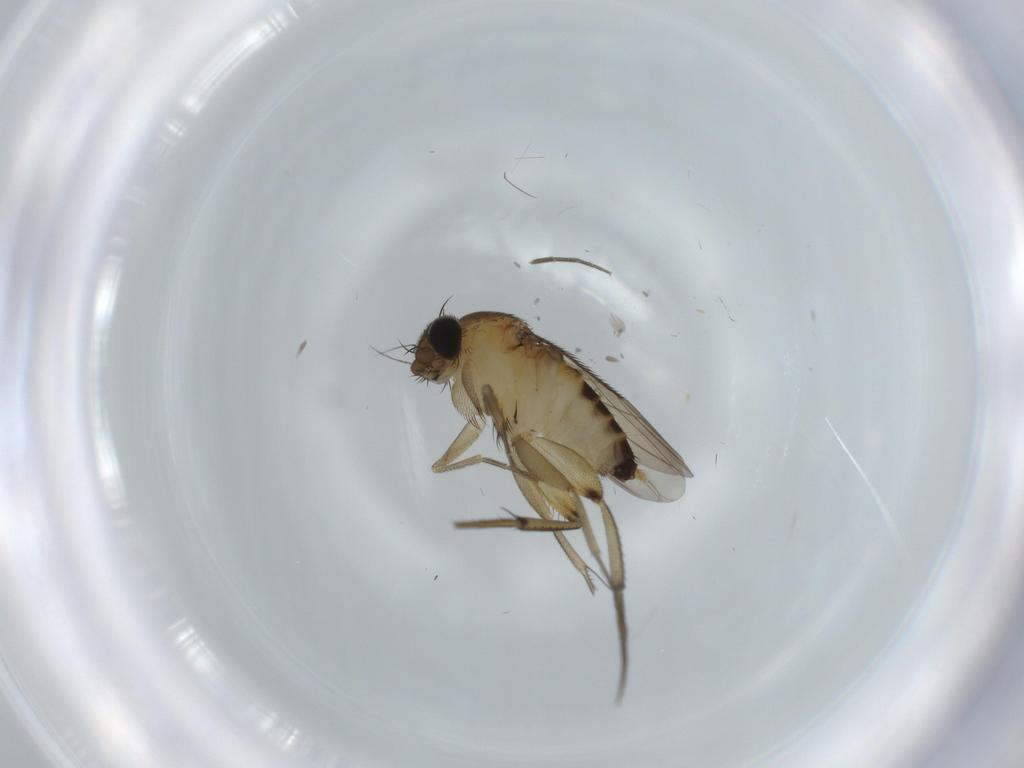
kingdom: Animalia
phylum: Arthropoda
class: Insecta
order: Diptera
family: Phoridae
